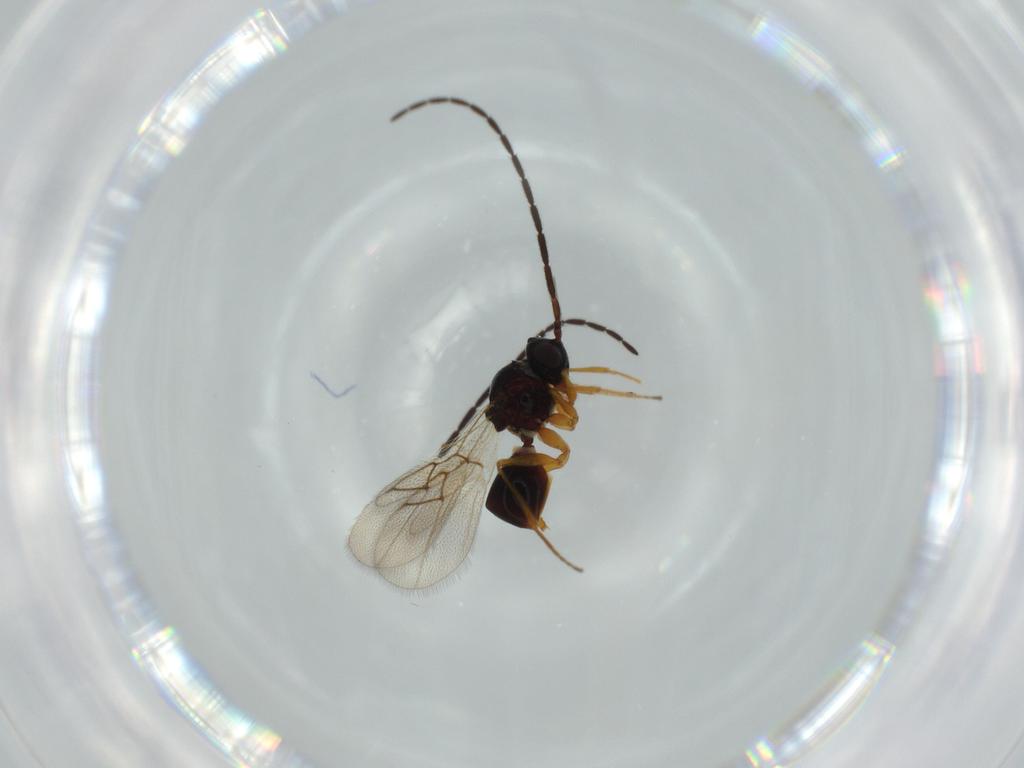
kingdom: Animalia
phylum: Arthropoda
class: Insecta
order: Hymenoptera
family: Figitidae
